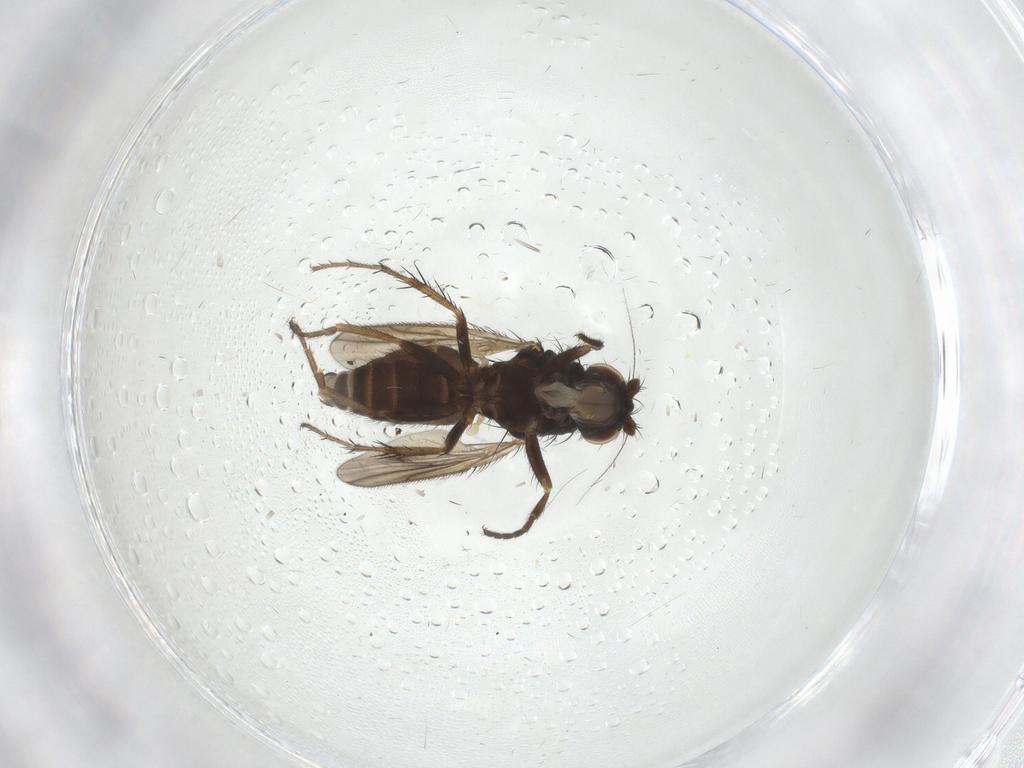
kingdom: Animalia
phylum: Arthropoda
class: Insecta
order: Diptera
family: Sphaeroceridae
